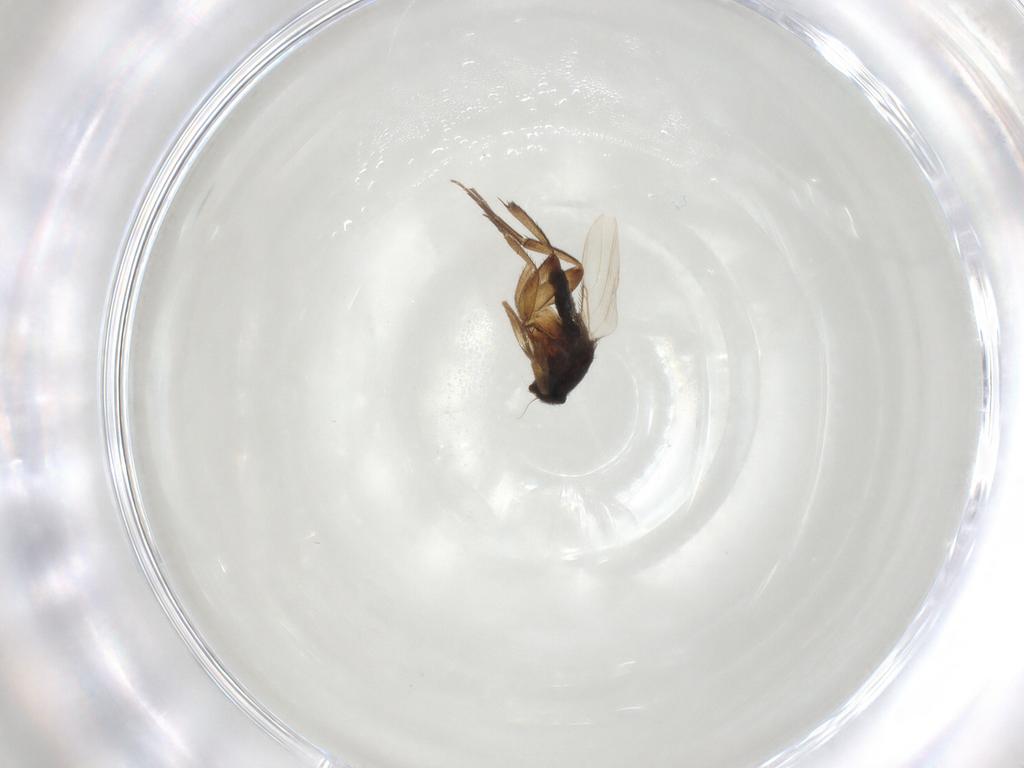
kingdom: Animalia
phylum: Arthropoda
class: Insecta
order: Diptera
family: Phoridae
